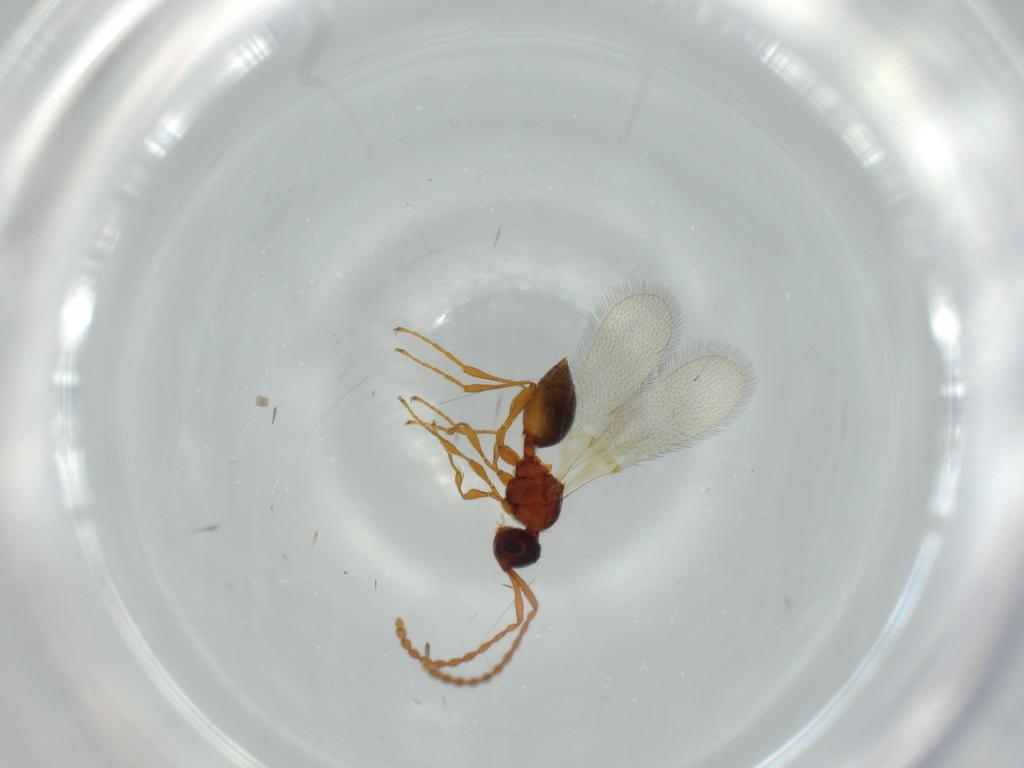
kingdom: Animalia
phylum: Arthropoda
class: Insecta
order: Hymenoptera
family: Diapriidae
